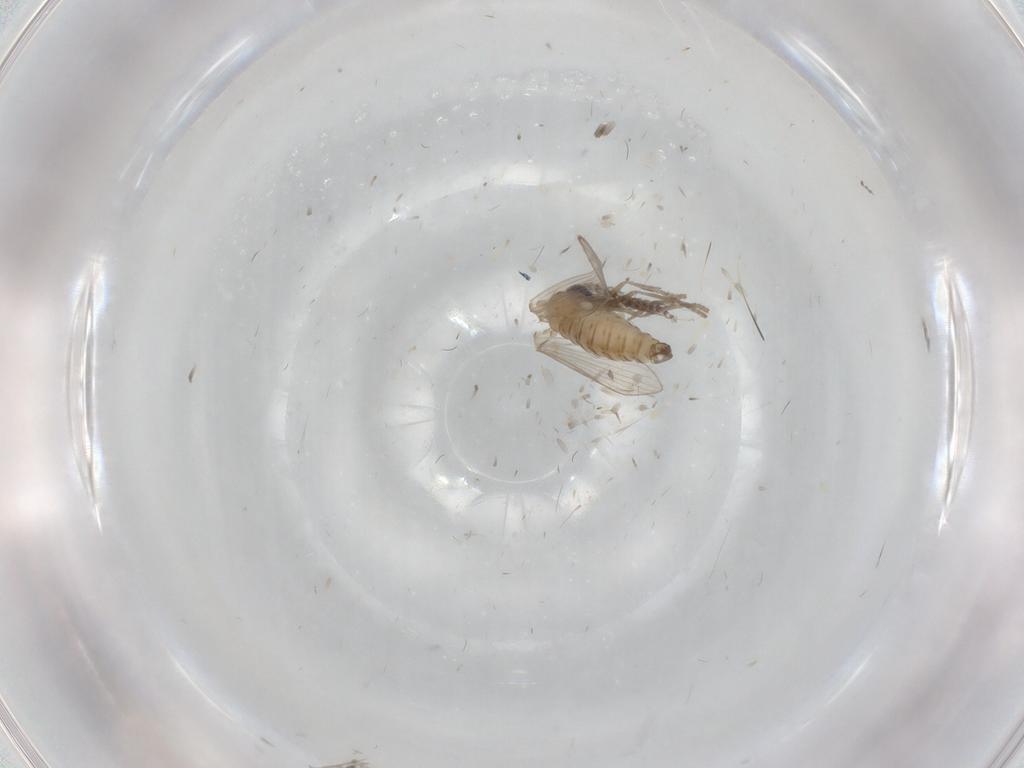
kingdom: Animalia
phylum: Arthropoda
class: Insecta
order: Diptera
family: Psychodidae
